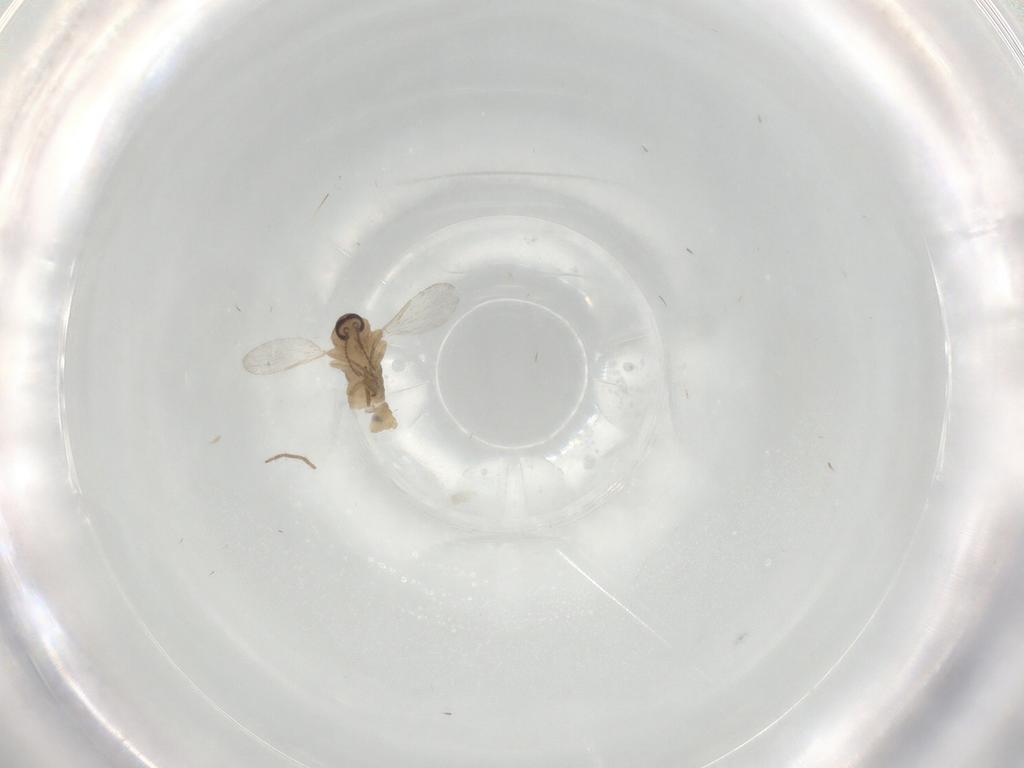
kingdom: Animalia
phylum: Arthropoda
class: Insecta
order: Diptera
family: Ceratopogonidae
